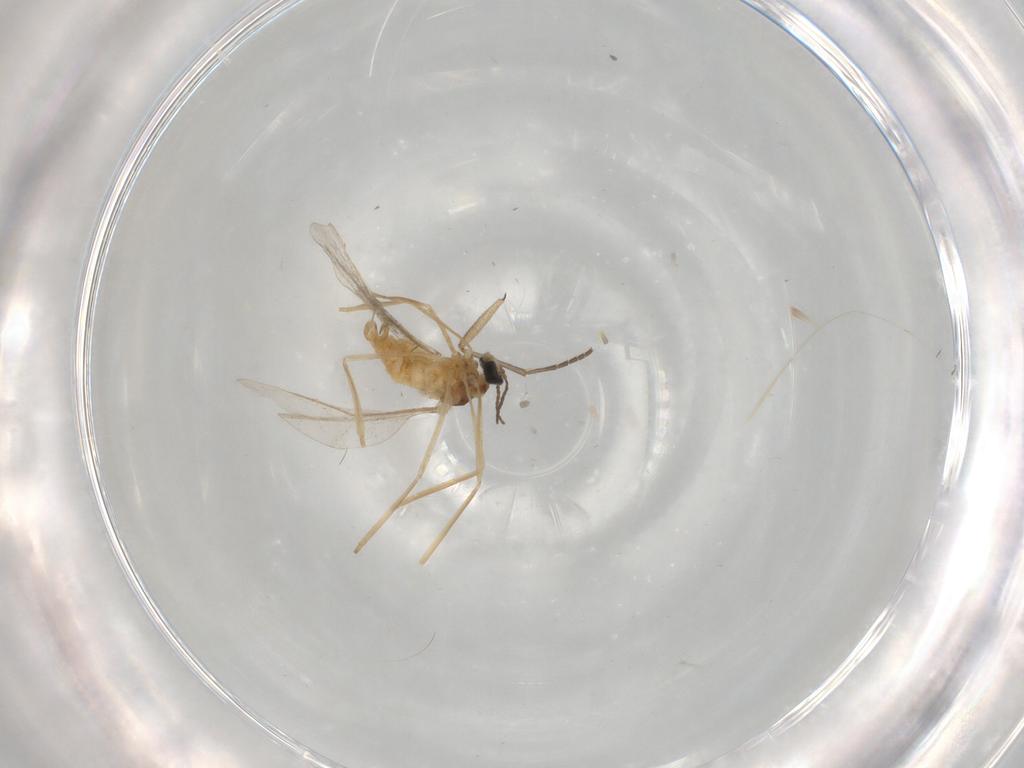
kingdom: Animalia
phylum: Arthropoda
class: Insecta
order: Diptera
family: Cecidomyiidae
